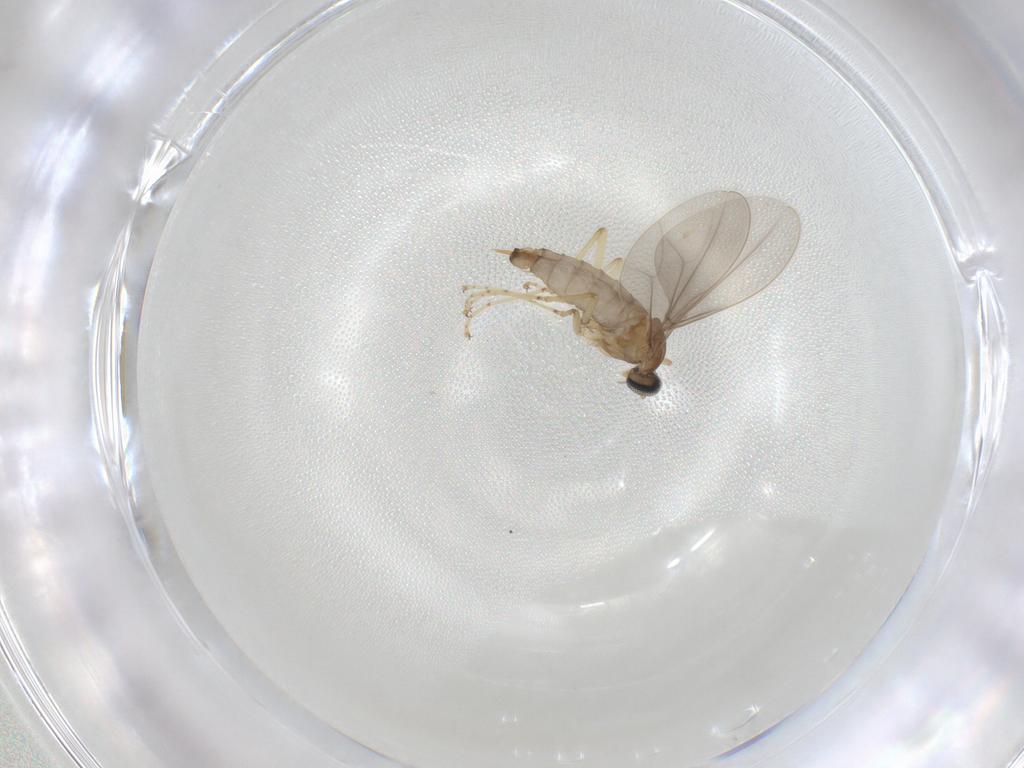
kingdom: Animalia
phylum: Arthropoda
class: Insecta
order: Diptera
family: Cecidomyiidae
